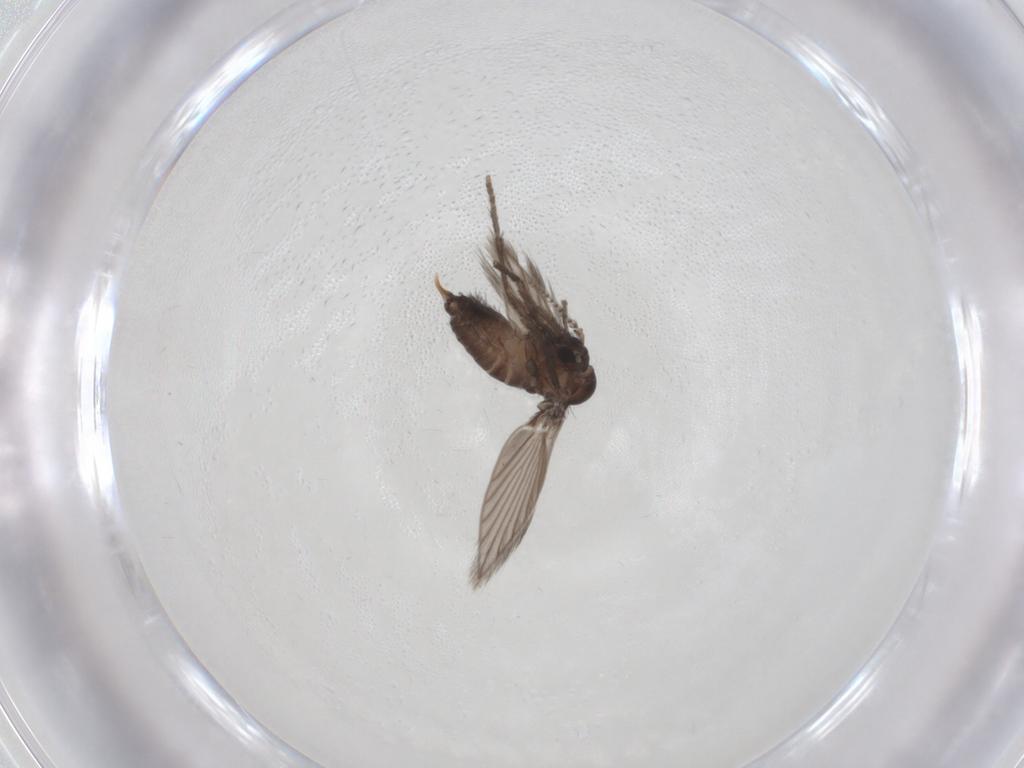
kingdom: Animalia
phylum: Arthropoda
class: Insecta
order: Diptera
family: Psychodidae
